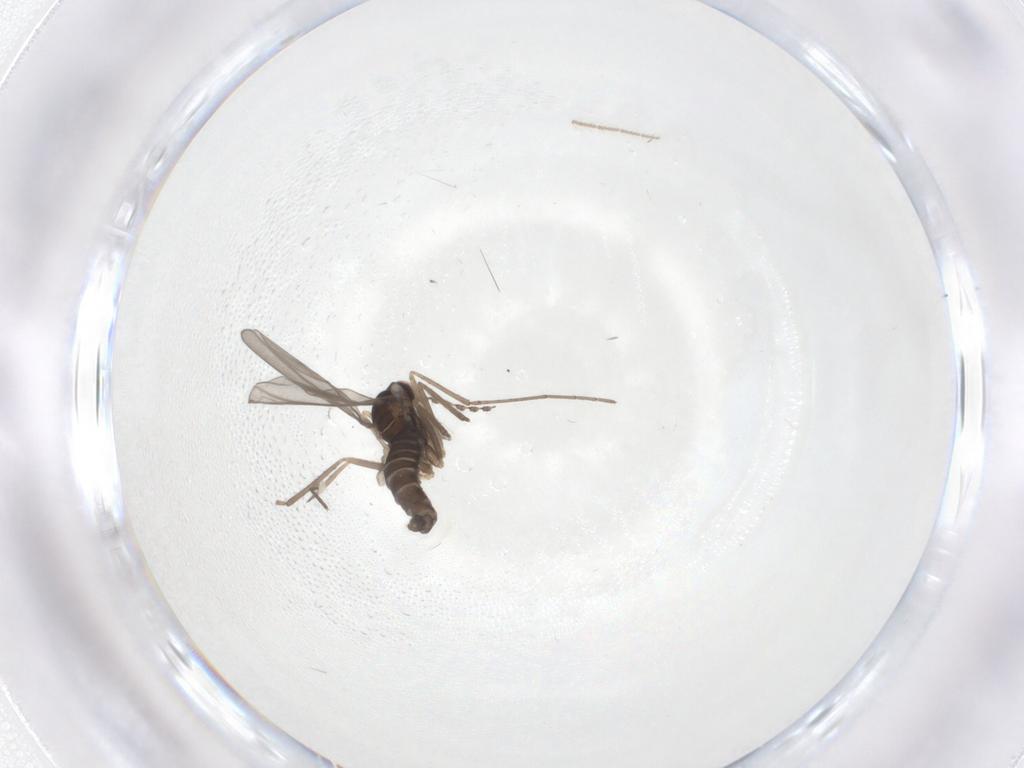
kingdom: Animalia
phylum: Arthropoda
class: Insecta
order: Diptera
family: Cecidomyiidae
